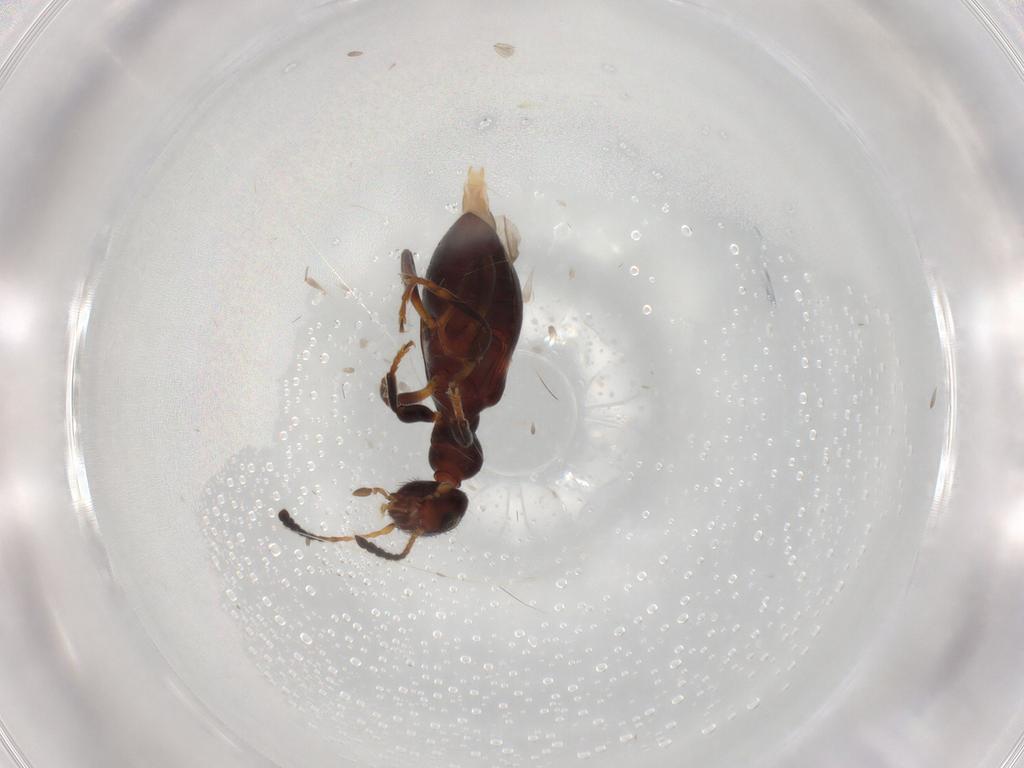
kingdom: Animalia
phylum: Arthropoda
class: Insecta
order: Coleoptera
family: Anthicidae
